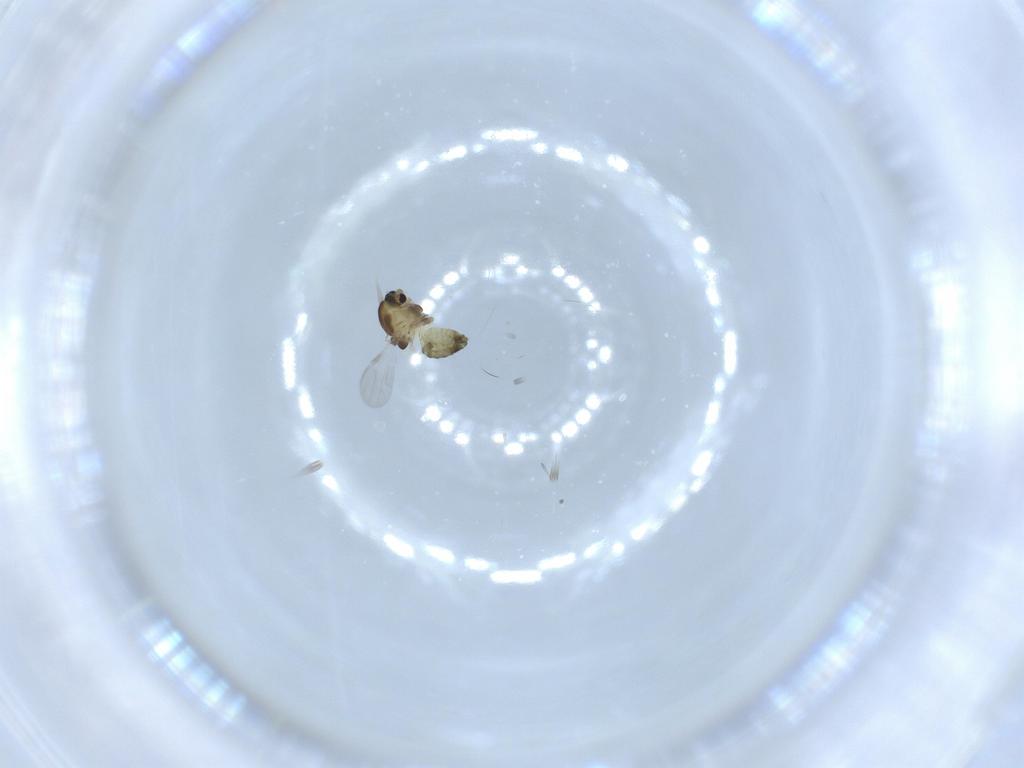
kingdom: Animalia
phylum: Arthropoda
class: Insecta
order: Diptera
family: Chironomidae
